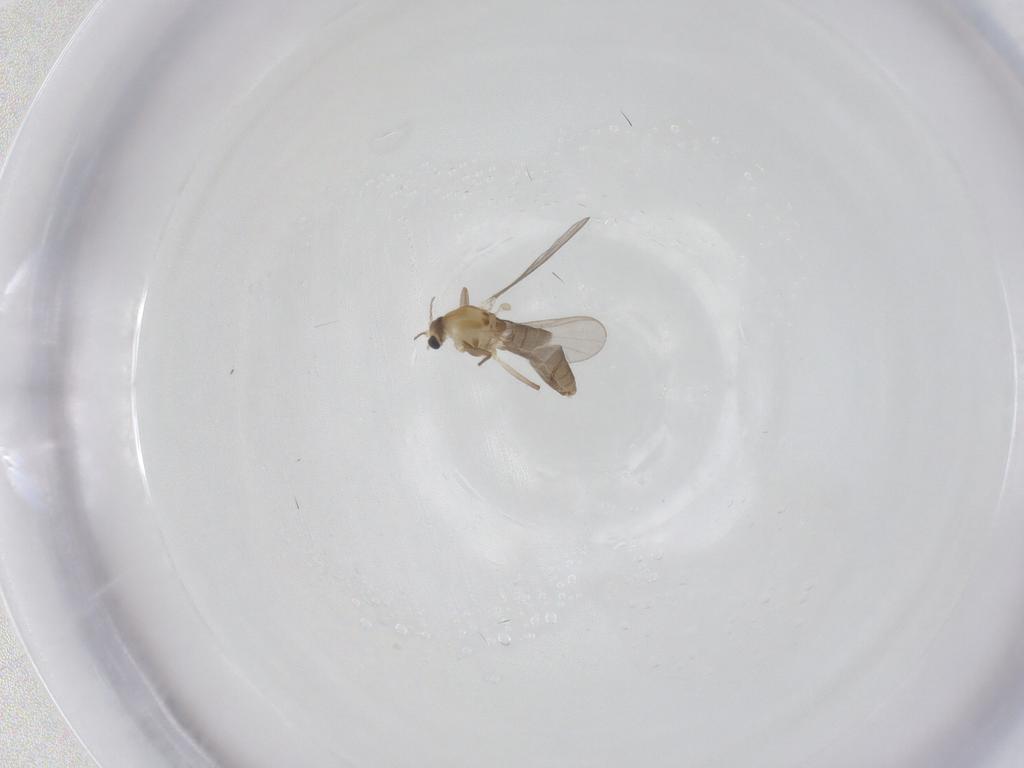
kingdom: Animalia
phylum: Arthropoda
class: Insecta
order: Diptera
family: Chironomidae
